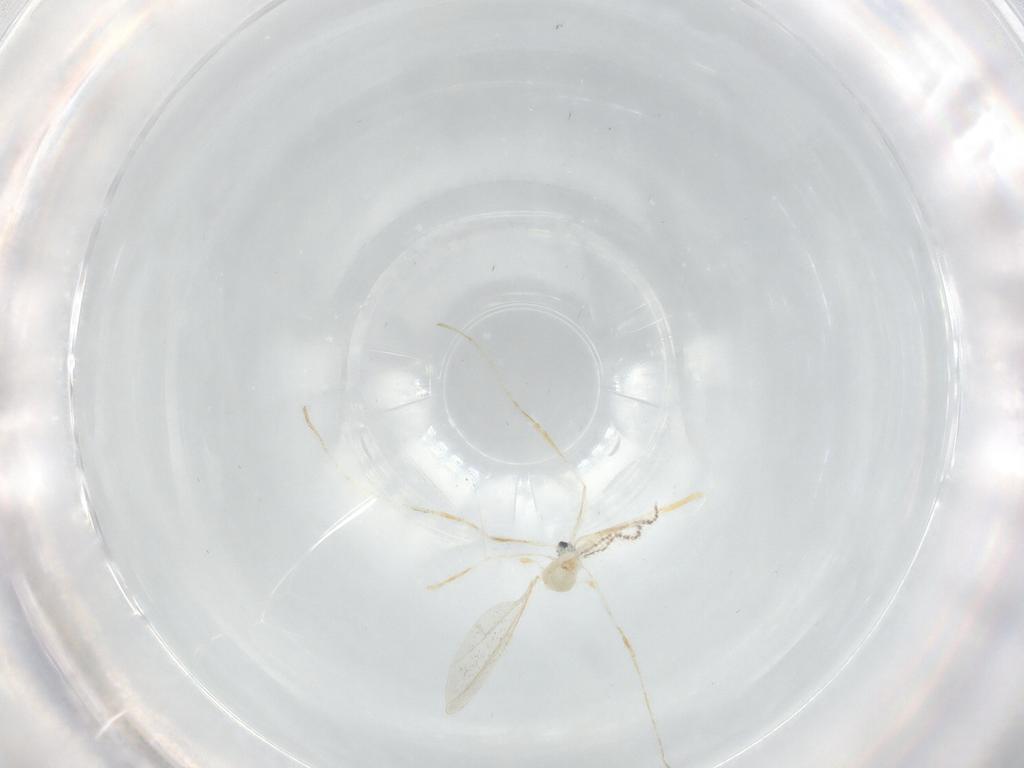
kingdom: Animalia
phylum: Arthropoda
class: Insecta
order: Diptera
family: Cecidomyiidae
